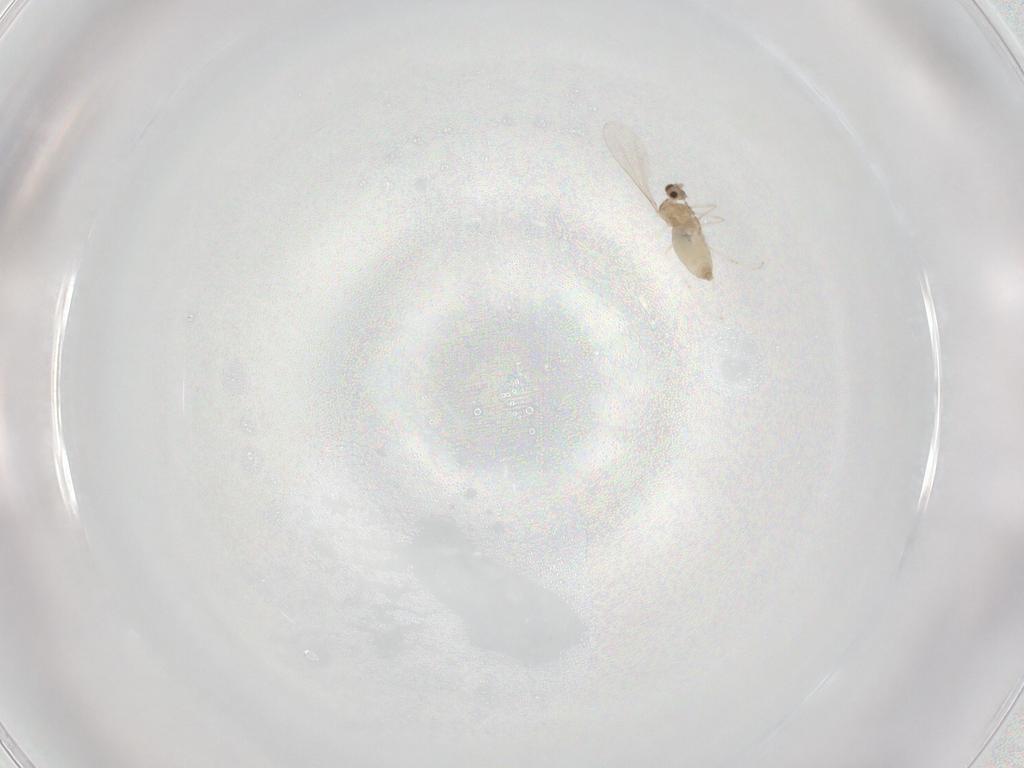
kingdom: Animalia
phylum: Arthropoda
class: Insecta
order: Diptera
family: Cecidomyiidae
